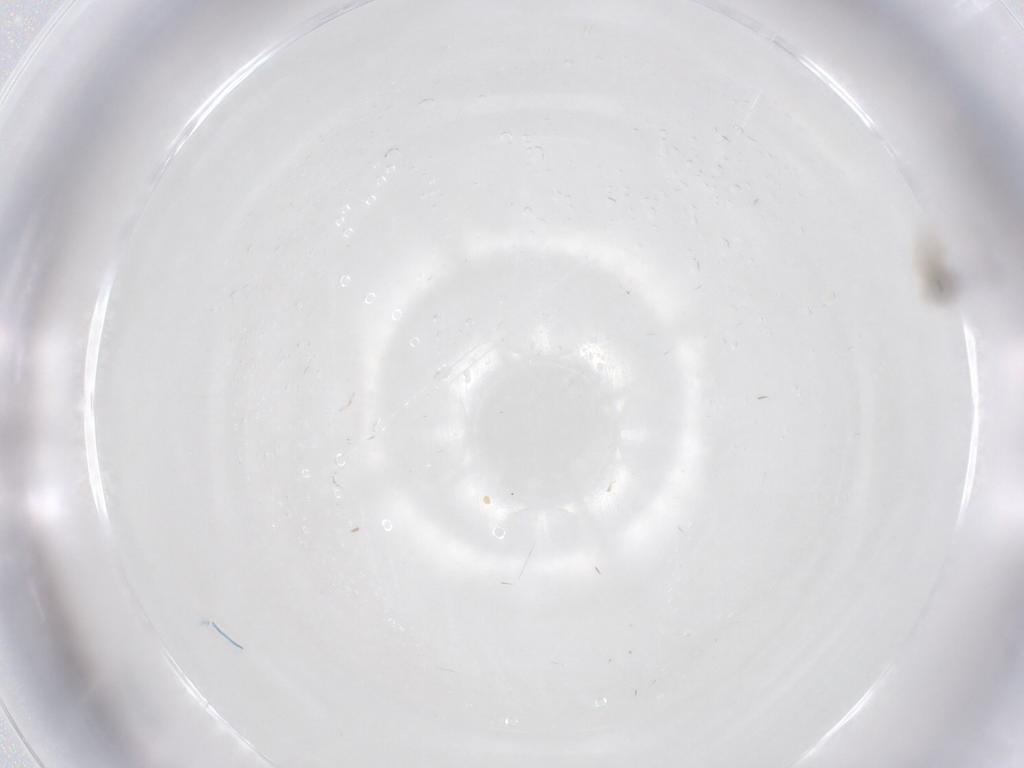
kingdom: Animalia
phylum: Arthropoda
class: Insecta
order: Diptera
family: Cecidomyiidae
